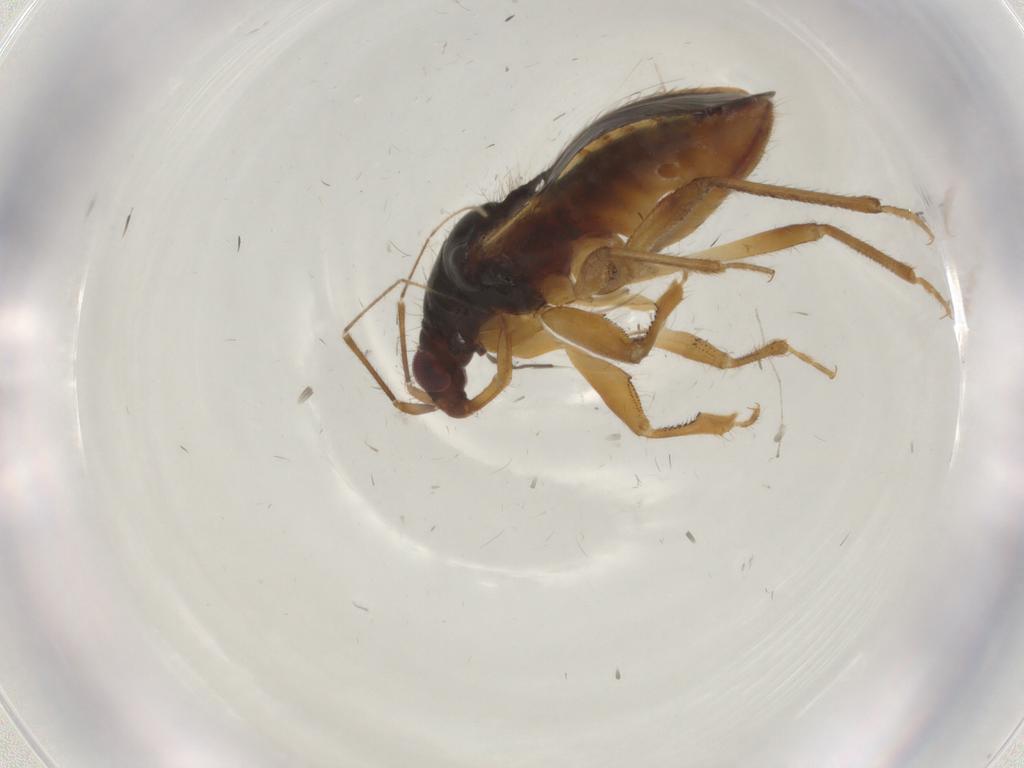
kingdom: Animalia
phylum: Arthropoda
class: Insecta
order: Hemiptera
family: Nabidae
